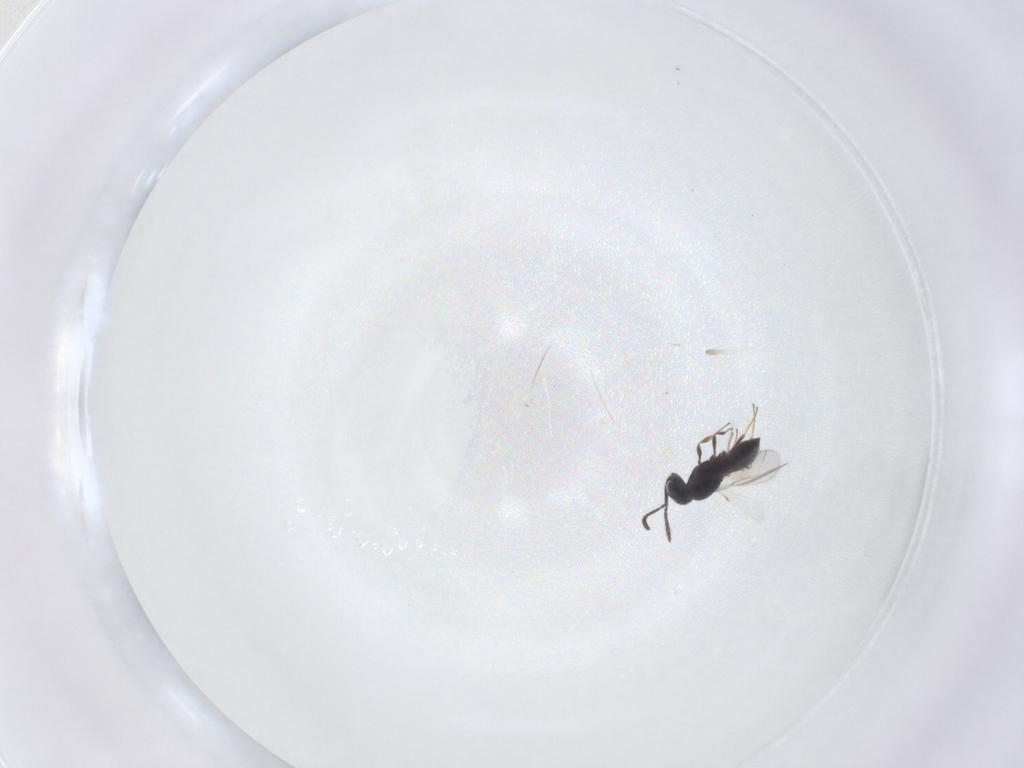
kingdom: Animalia
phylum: Arthropoda
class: Insecta
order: Hymenoptera
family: Scelionidae
